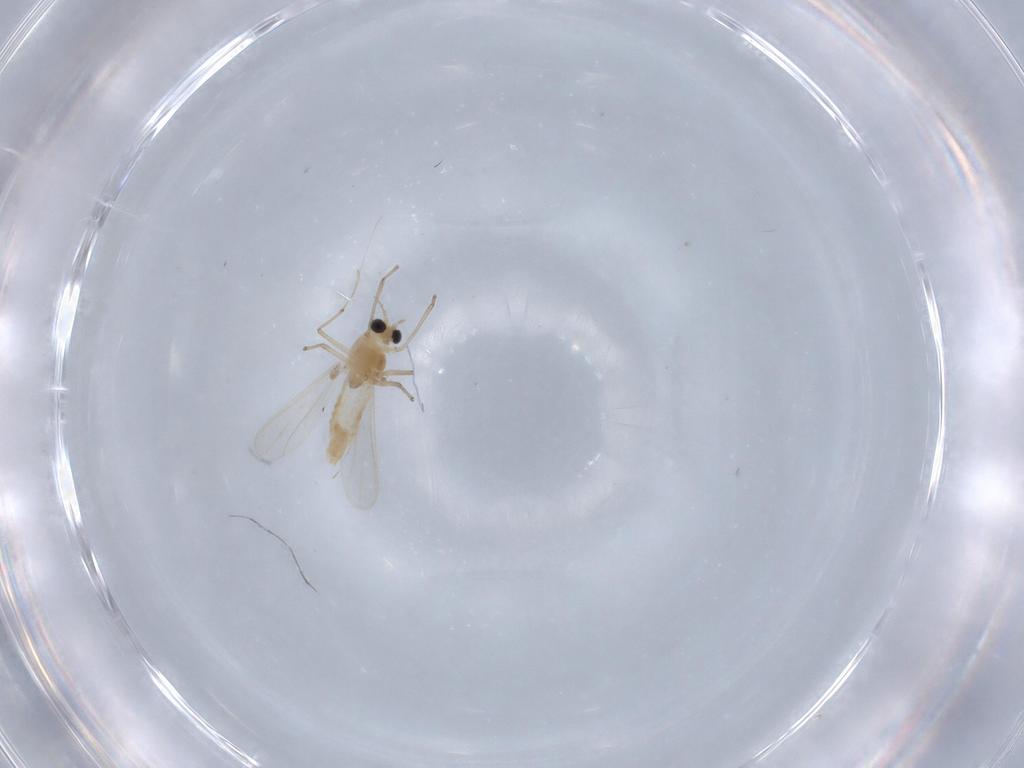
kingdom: Animalia
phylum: Arthropoda
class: Insecta
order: Diptera
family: Chironomidae
